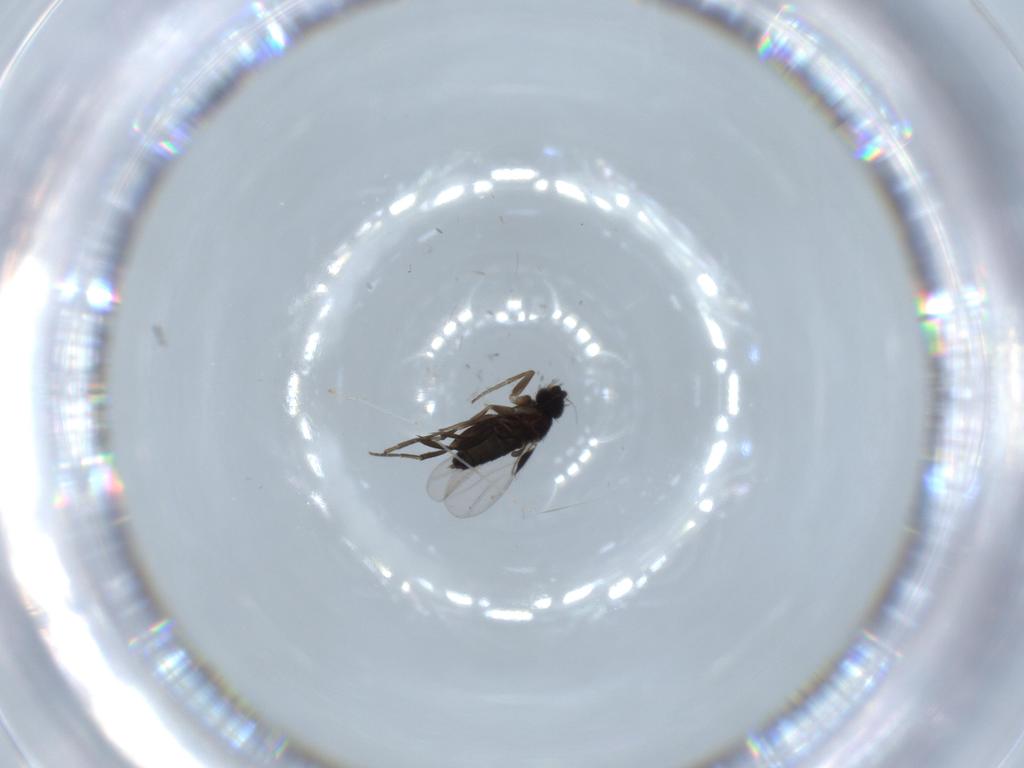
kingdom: Animalia
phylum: Arthropoda
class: Insecta
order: Diptera
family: Phoridae
